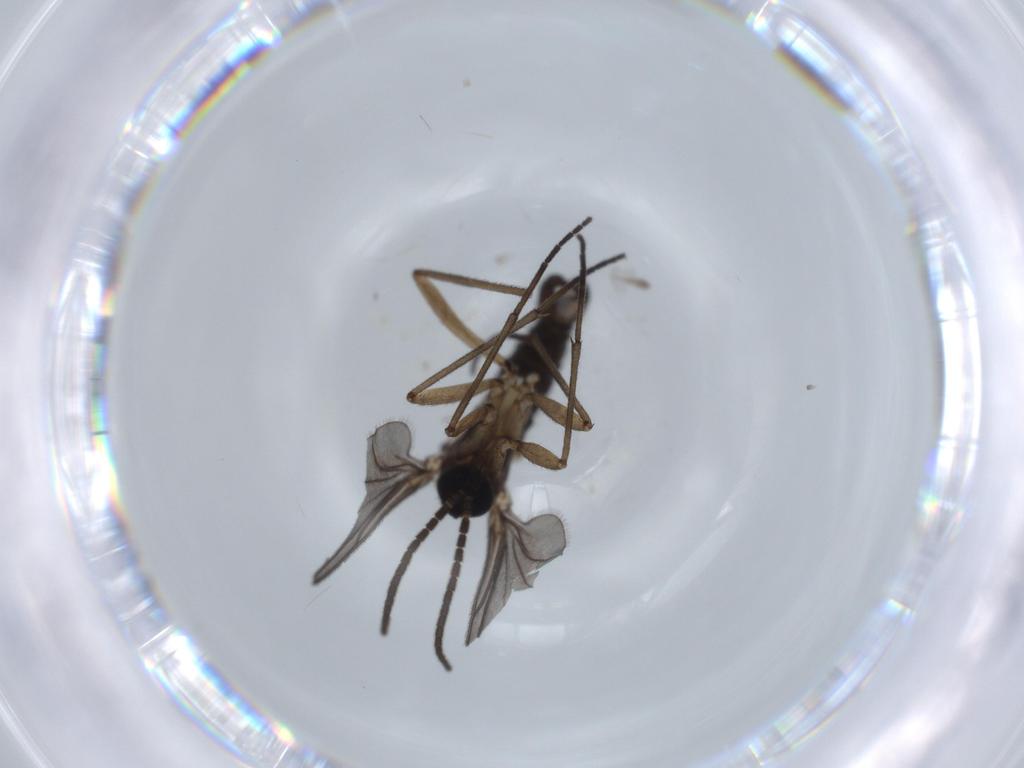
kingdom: Animalia
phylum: Arthropoda
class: Insecta
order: Diptera
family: Sciaridae
